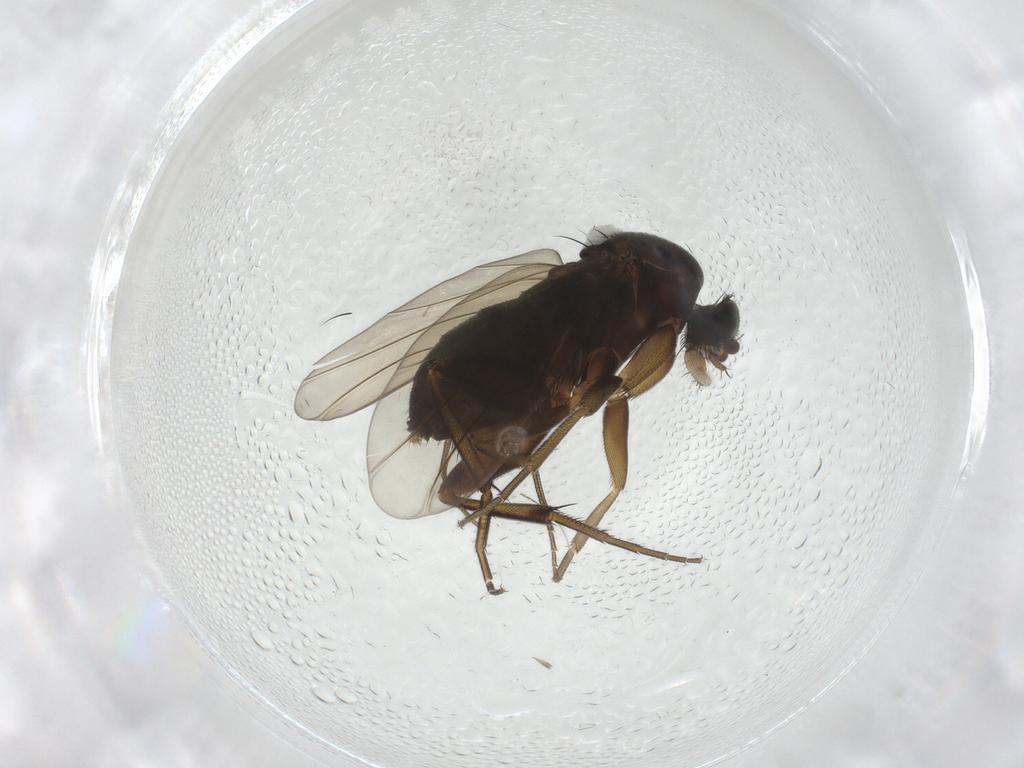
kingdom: Animalia
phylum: Arthropoda
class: Insecta
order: Diptera
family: Phoridae
